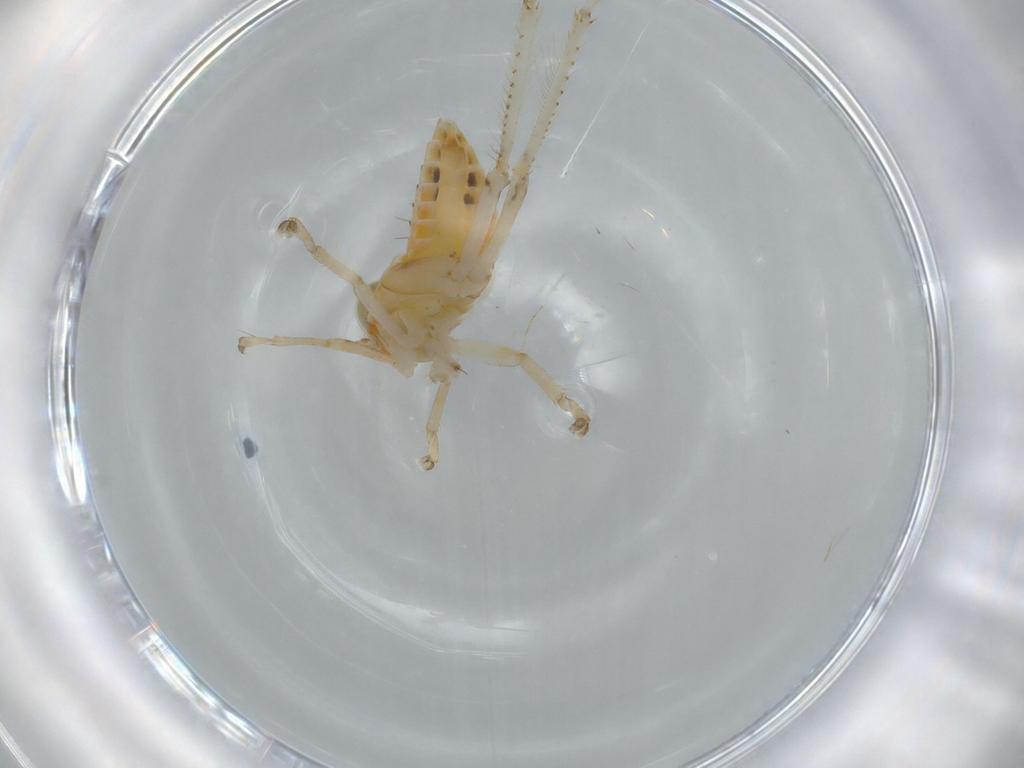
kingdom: Animalia
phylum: Arthropoda
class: Insecta
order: Hemiptera
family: Cicadellidae
